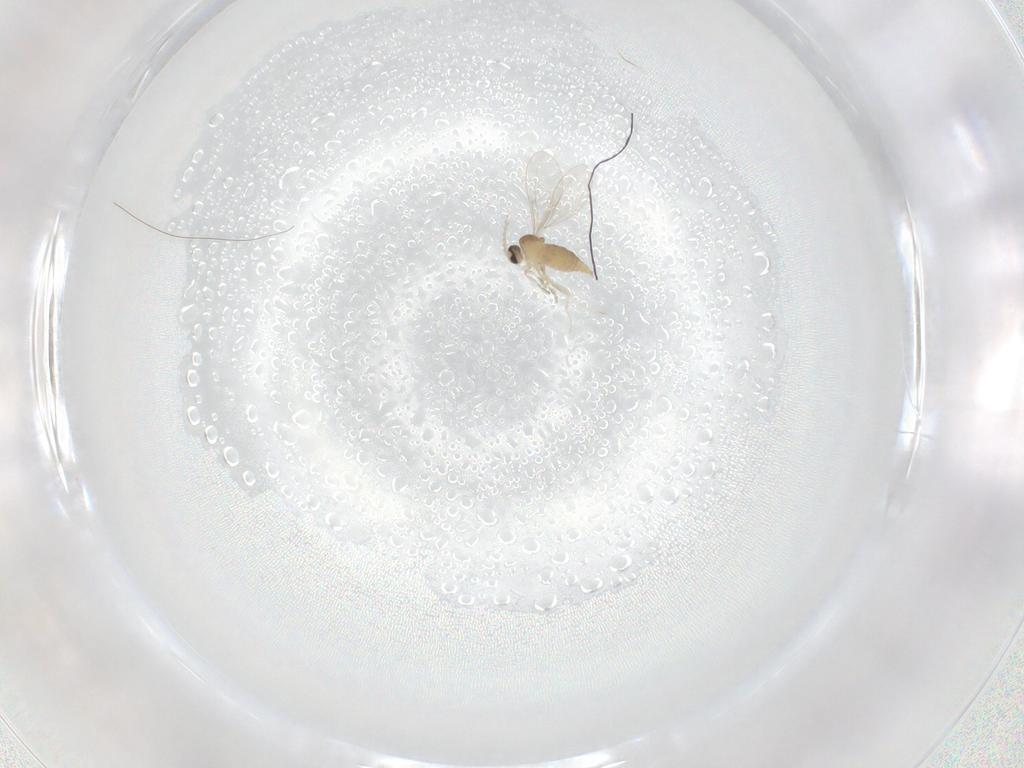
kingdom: Animalia
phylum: Arthropoda
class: Insecta
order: Diptera
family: Cecidomyiidae
